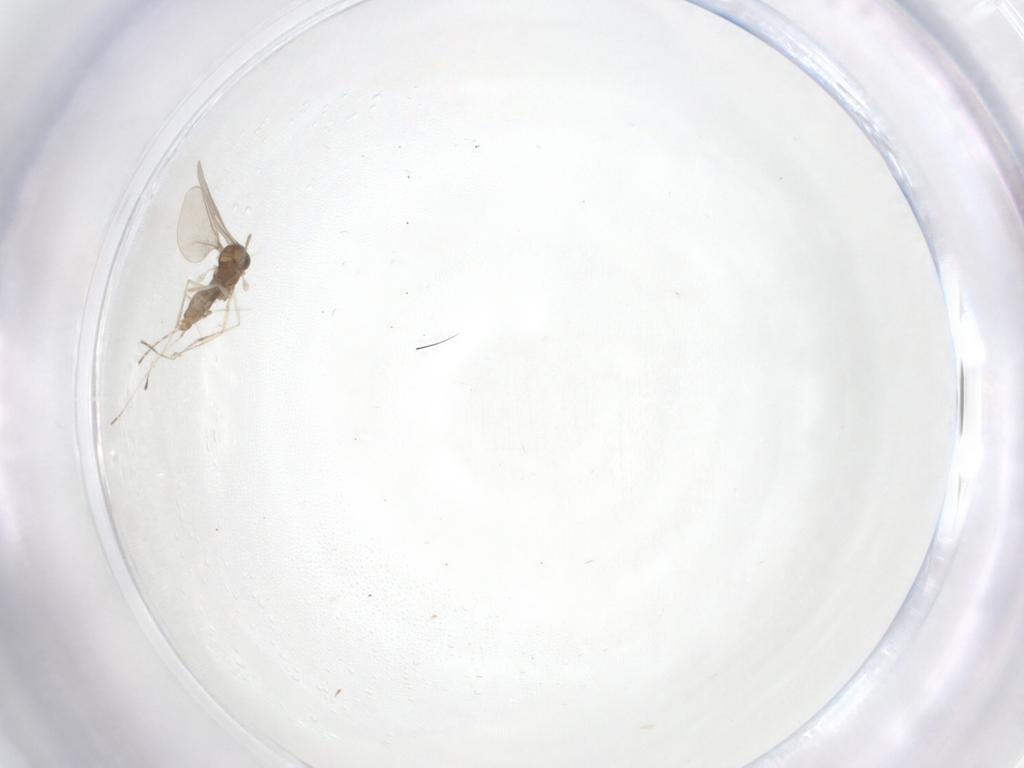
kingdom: Animalia
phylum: Arthropoda
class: Insecta
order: Diptera
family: Cecidomyiidae
